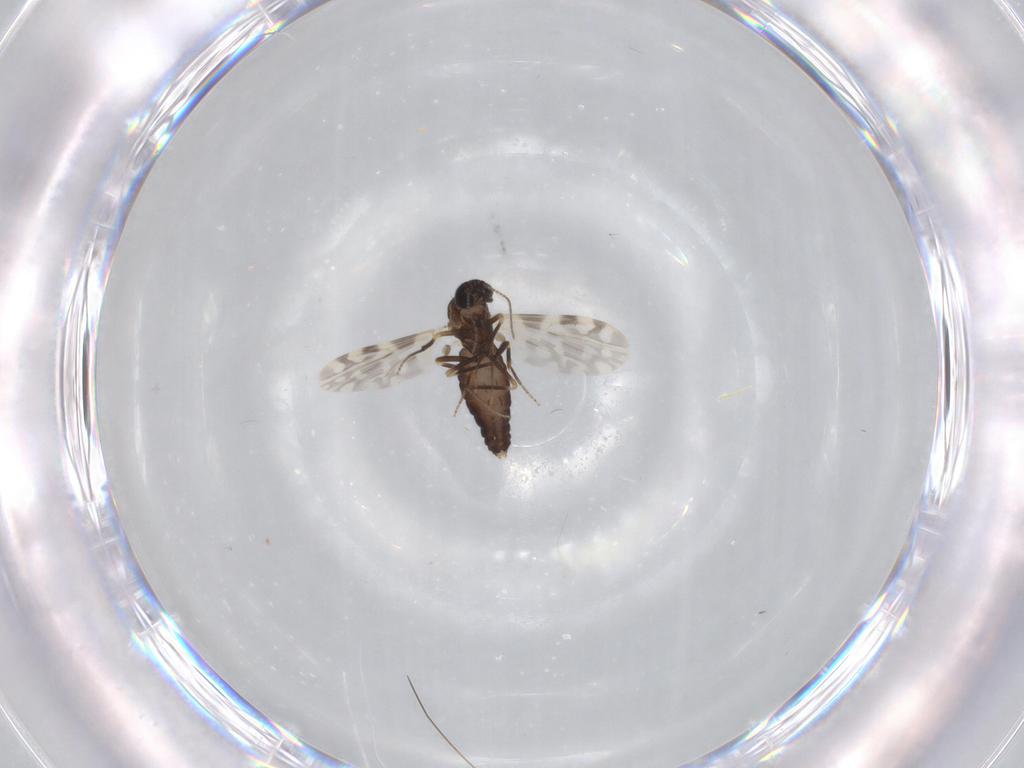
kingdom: Animalia
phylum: Arthropoda
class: Insecta
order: Diptera
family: Ceratopogonidae
